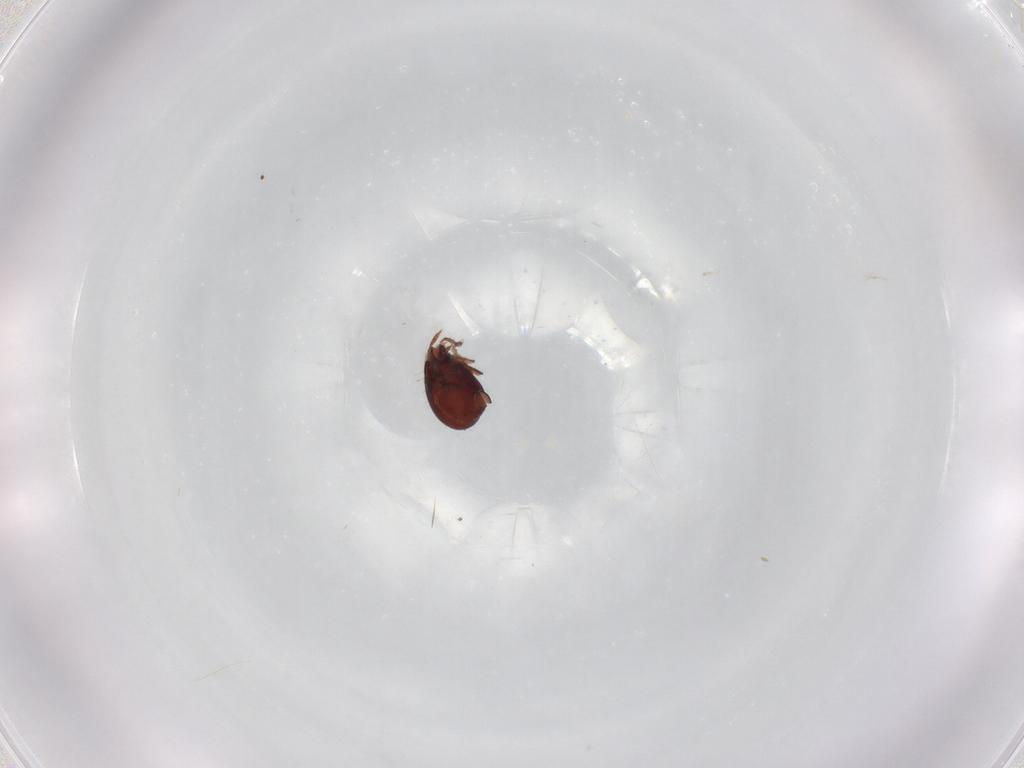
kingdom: Animalia
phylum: Arthropoda
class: Arachnida
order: Sarcoptiformes
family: Humerobatidae
